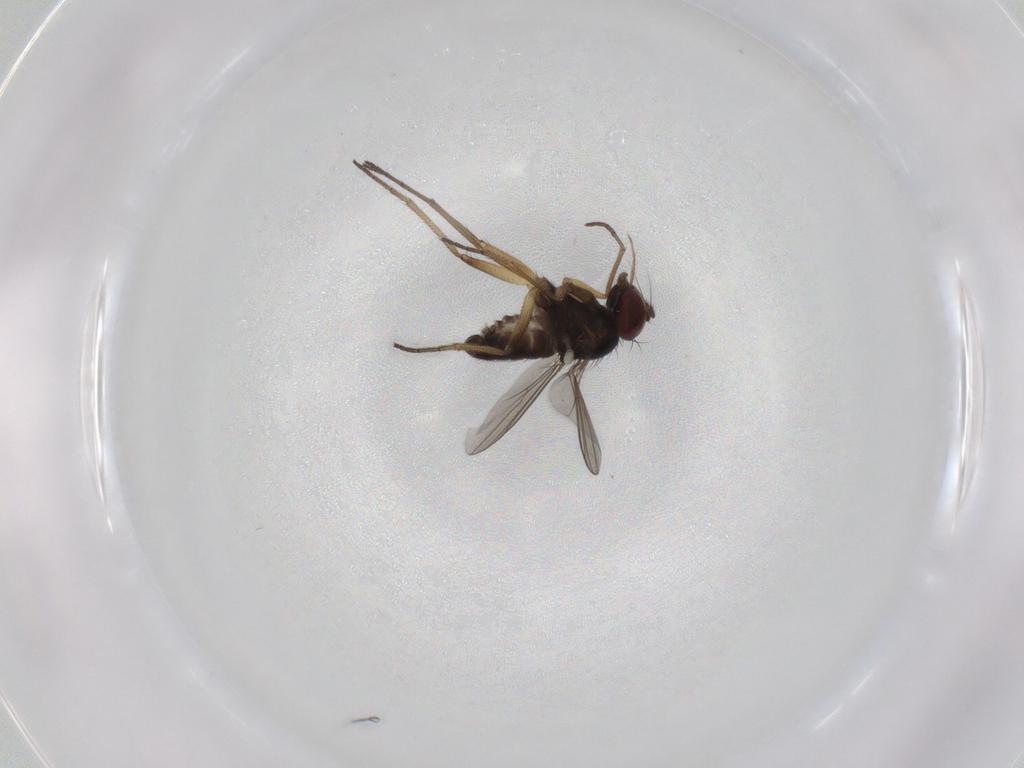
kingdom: Animalia
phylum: Arthropoda
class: Insecta
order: Diptera
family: Dolichopodidae
